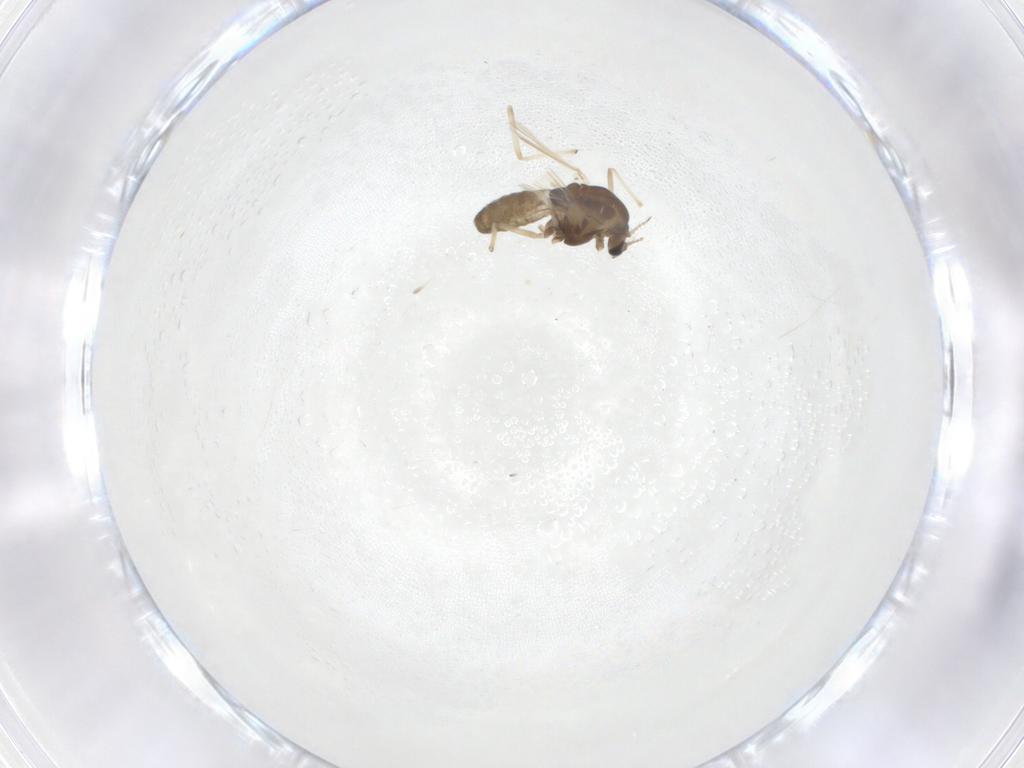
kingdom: Animalia
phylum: Arthropoda
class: Insecta
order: Diptera
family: Chironomidae
